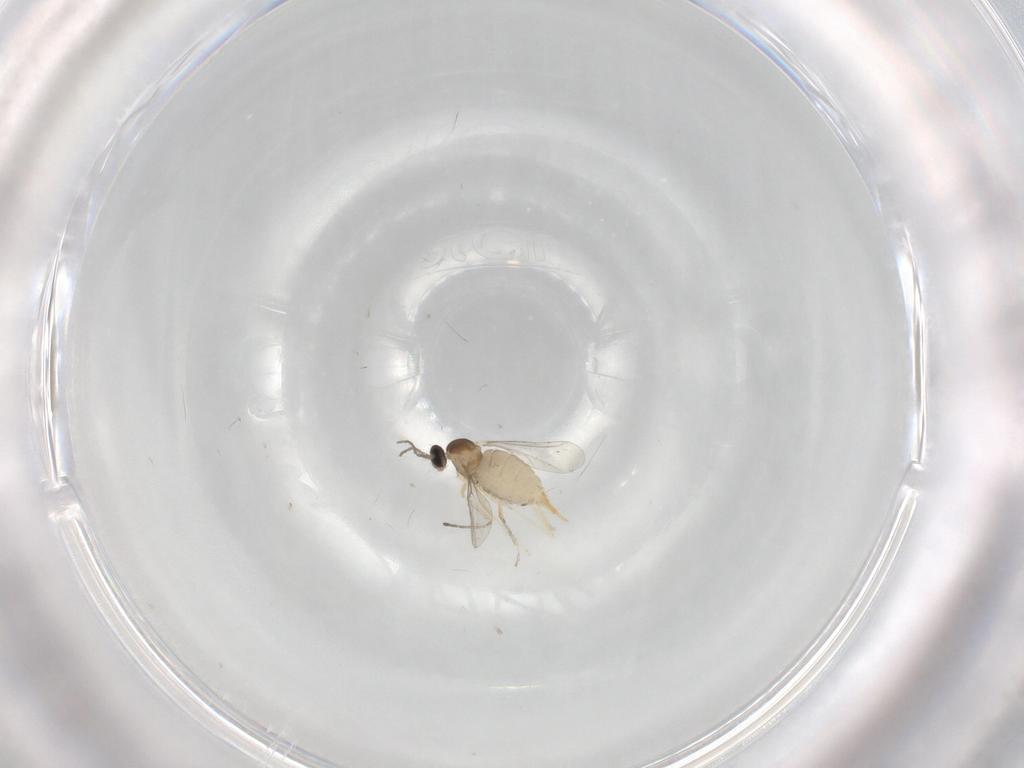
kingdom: Animalia
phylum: Arthropoda
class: Insecta
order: Diptera
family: Cecidomyiidae
